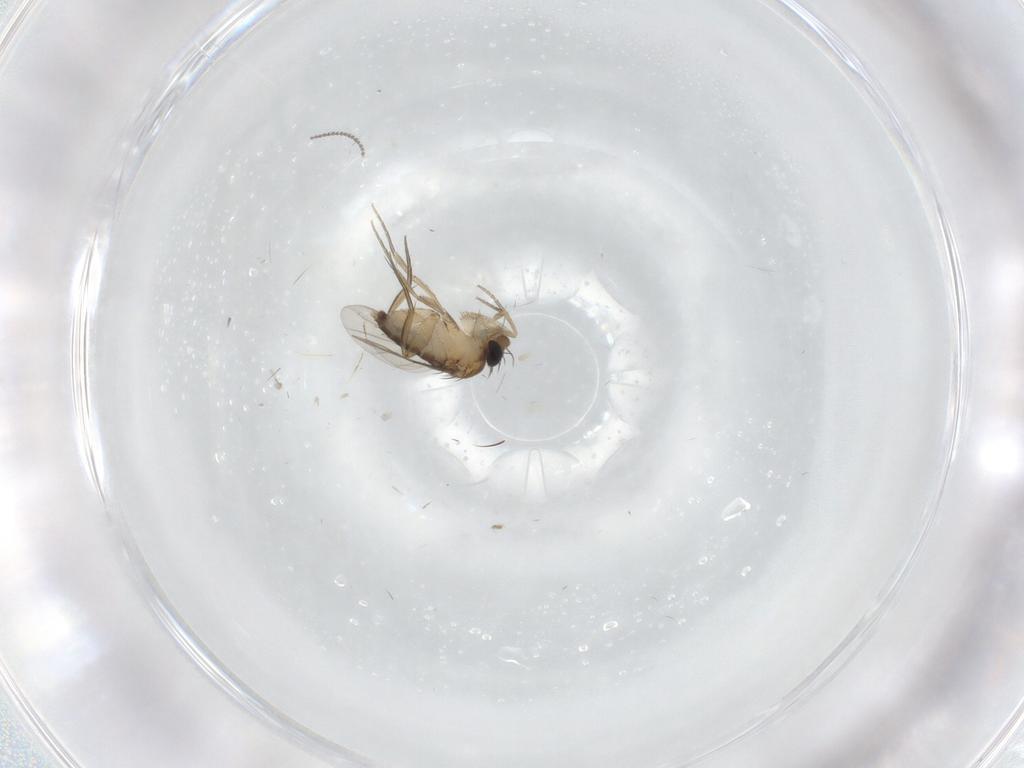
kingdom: Animalia
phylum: Arthropoda
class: Insecta
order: Diptera
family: Phoridae
